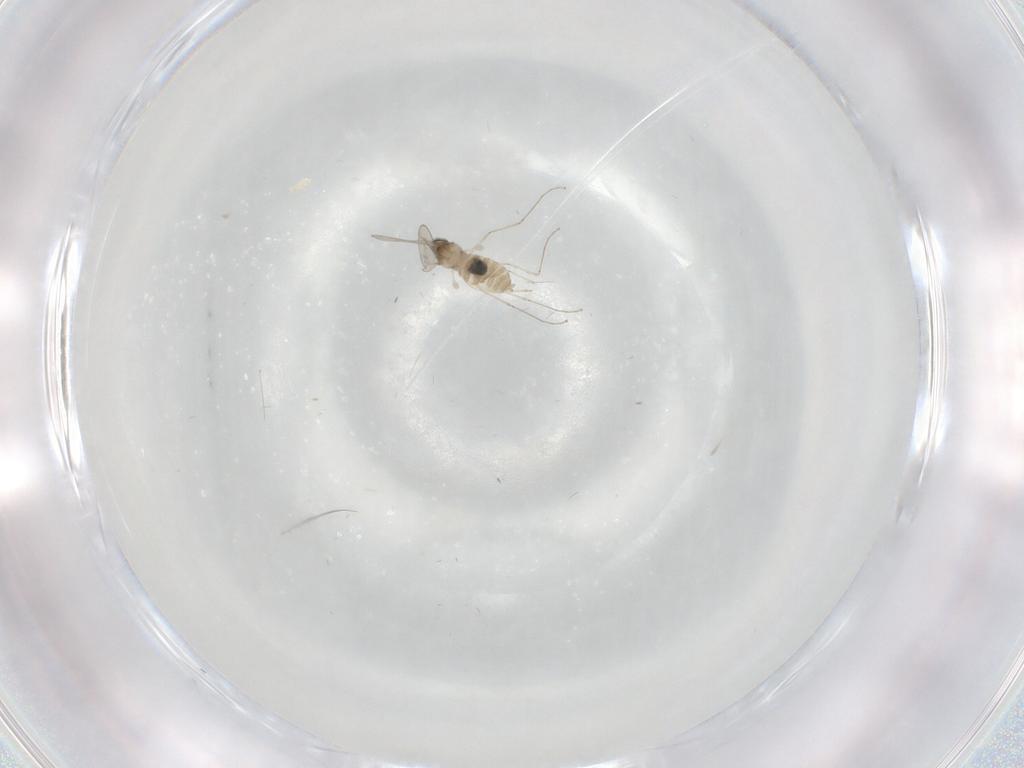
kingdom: Animalia
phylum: Arthropoda
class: Insecta
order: Diptera
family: Cecidomyiidae
